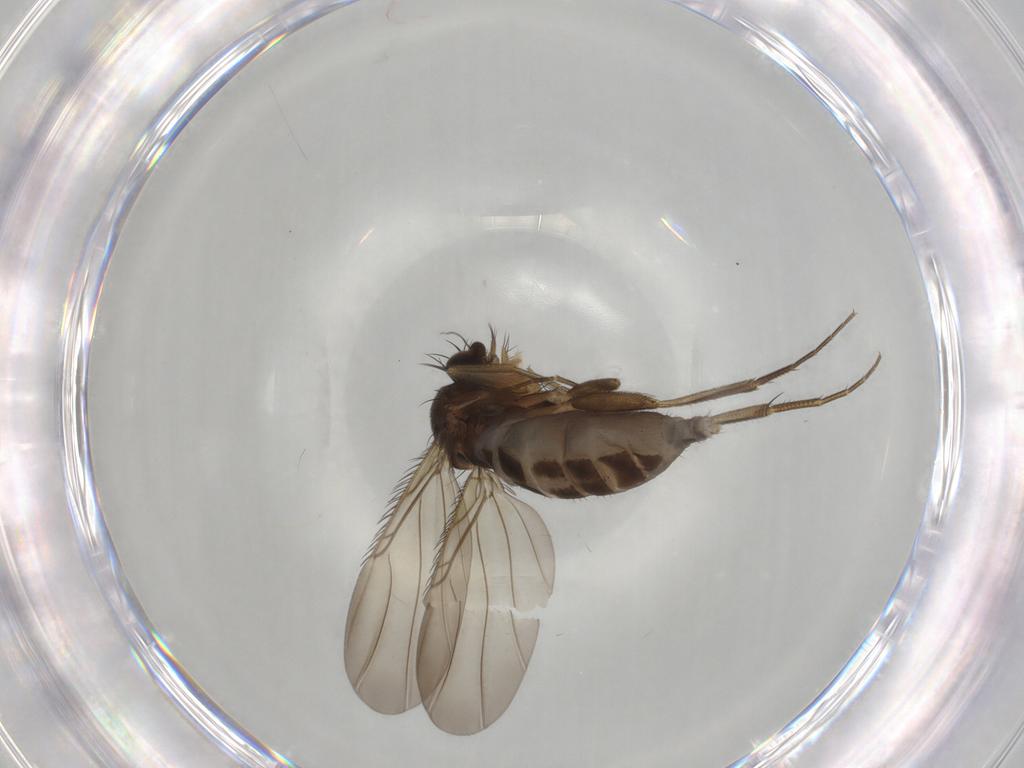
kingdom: Animalia
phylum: Arthropoda
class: Insecta
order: Diptera
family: Phoridae
